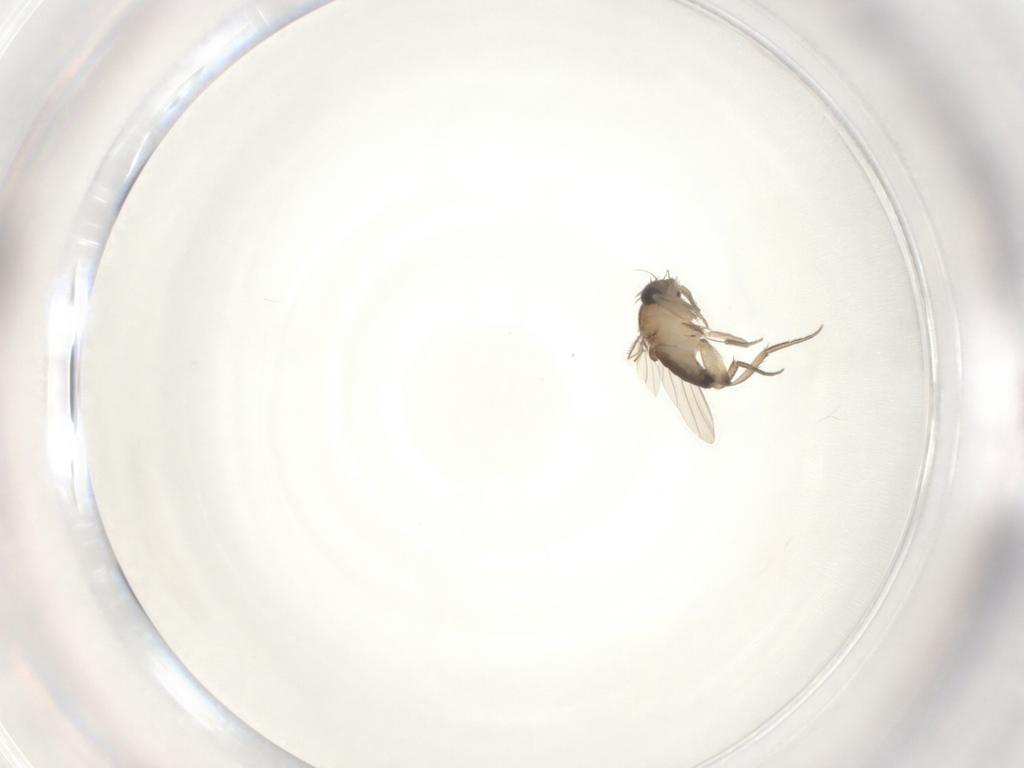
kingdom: Animalia
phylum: Arthropoda
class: Insecta
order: Diptera
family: Phoridae
